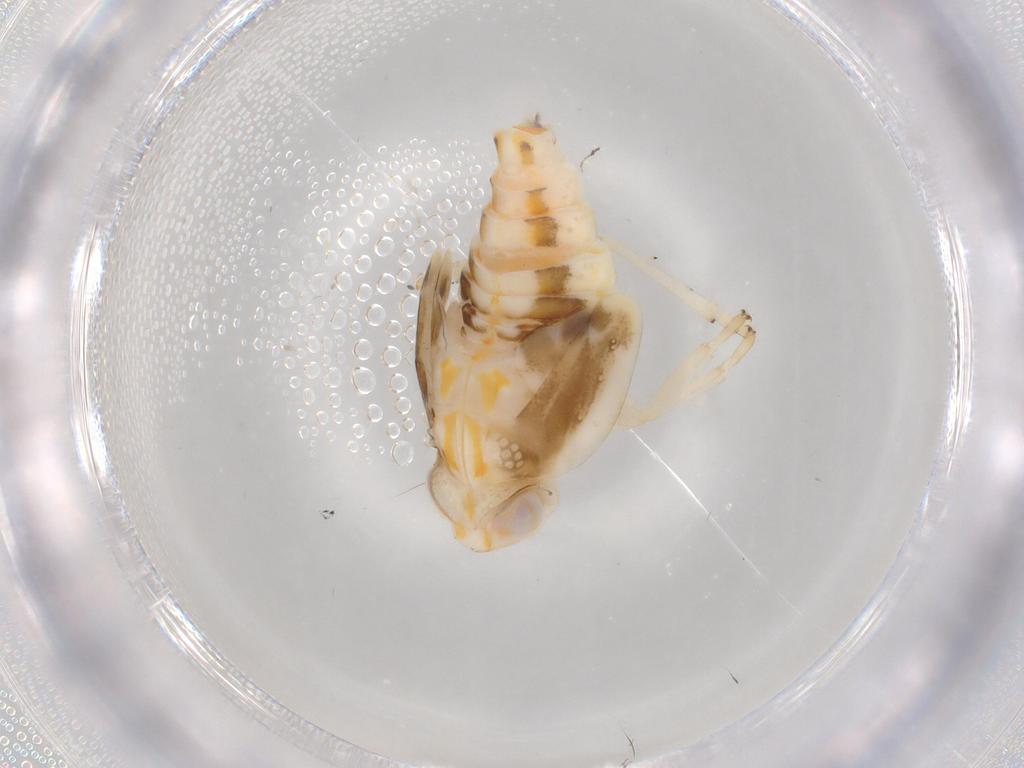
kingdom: Animalia
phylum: Arthropoda
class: Insecta
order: Hemiptera
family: Nogodinidae
